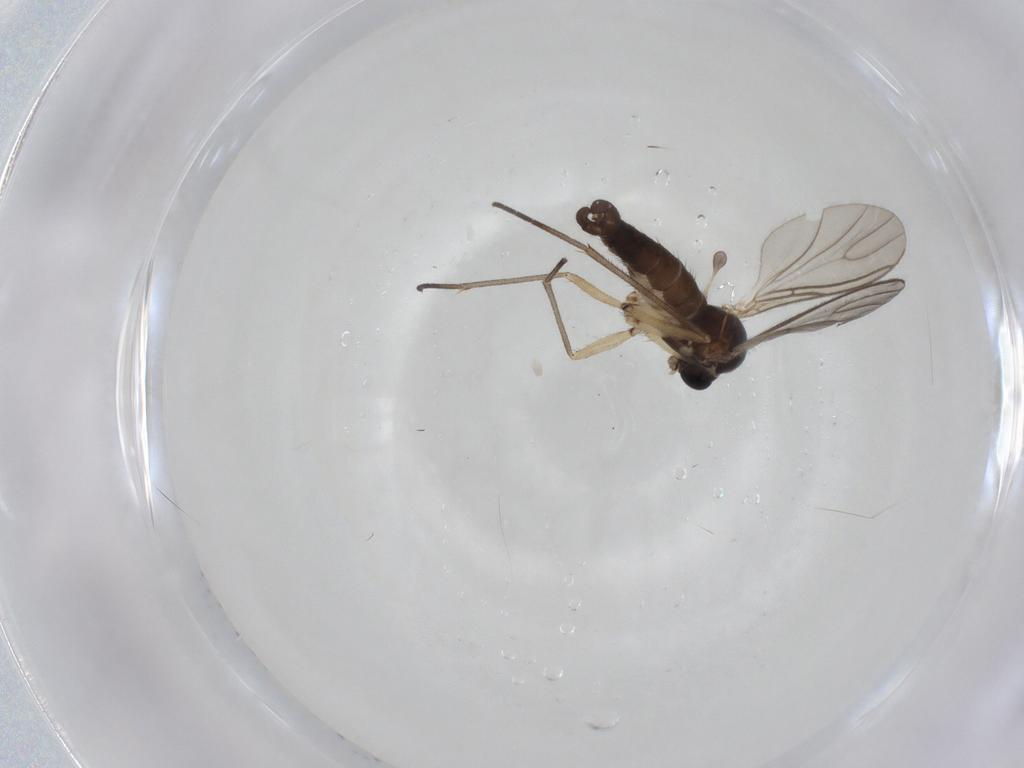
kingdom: Animalia
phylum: Arthropoda
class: Insecta
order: Diptera
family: Sciaridae
